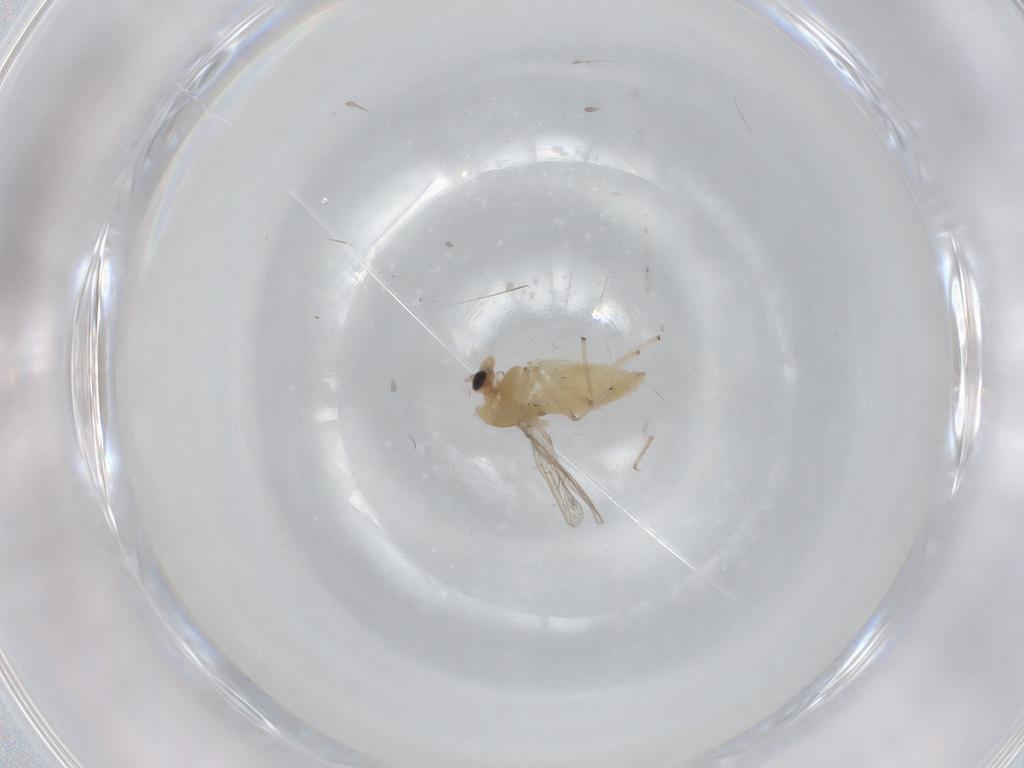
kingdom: Animalia
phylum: Arthropoda
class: Insecta
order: Diptera
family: Chironomidae
